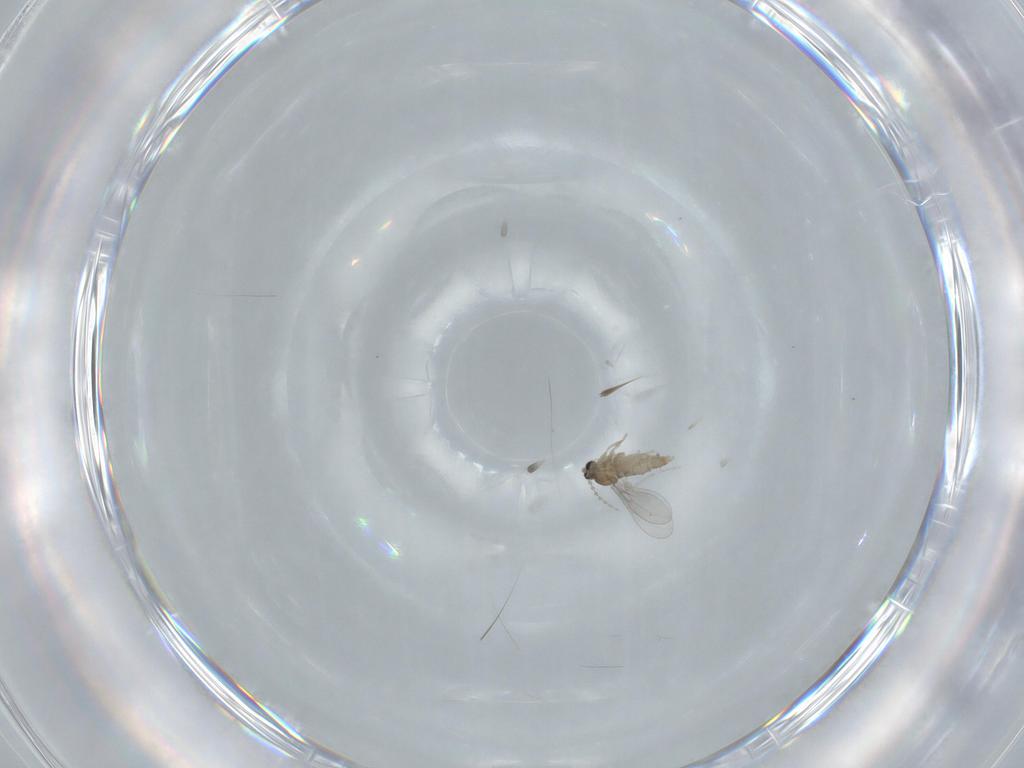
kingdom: Animalia
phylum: Arthropoda
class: Insecta
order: Diptera
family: Cecidomyiidae
